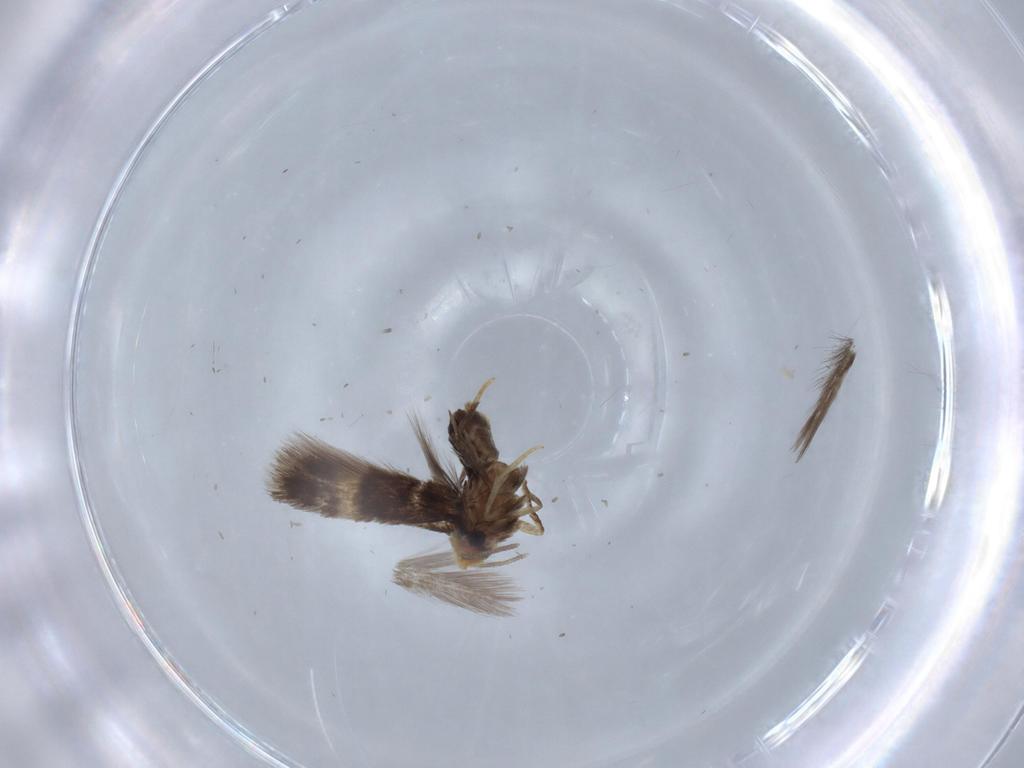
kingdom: Animalia
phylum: Arthropoda
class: Insecta
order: Lepidoptera
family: Nepticulidae
